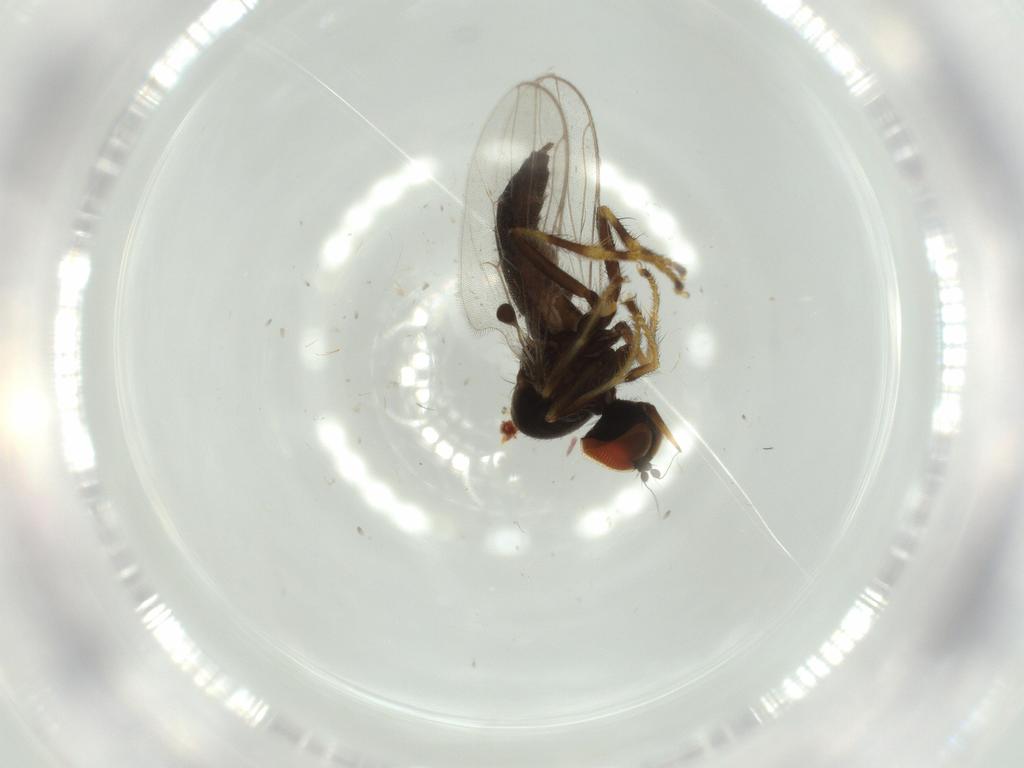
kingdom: Animalia
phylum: Arthropoda
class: Insecta
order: Diptera
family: Hybotidae
